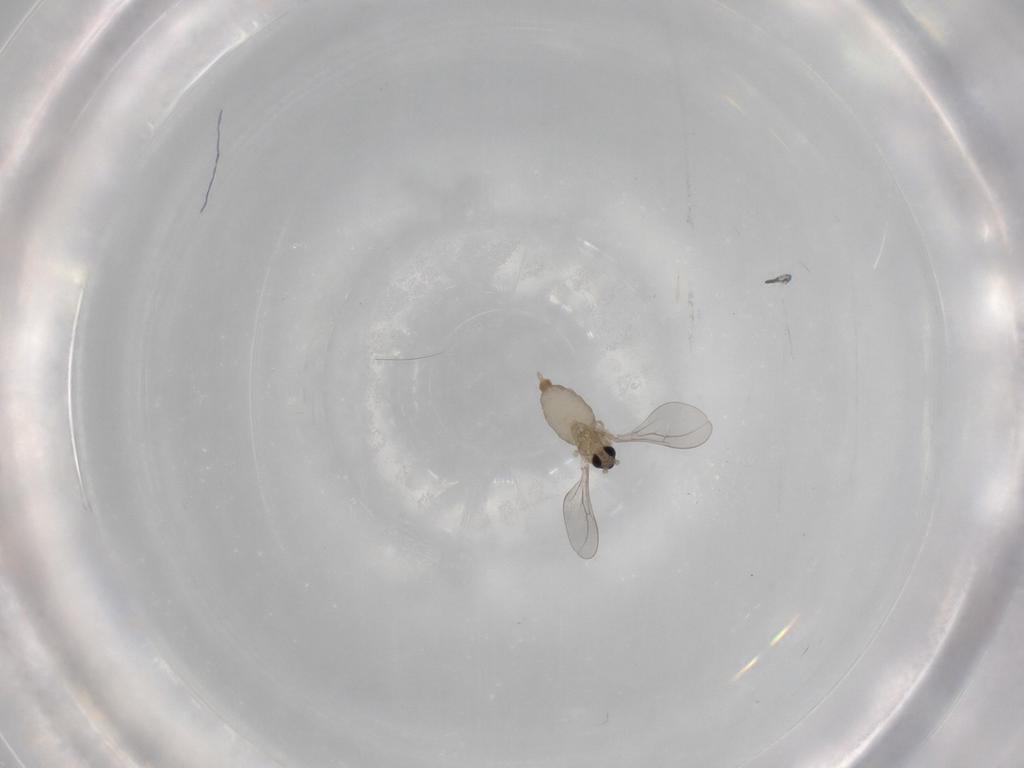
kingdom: Animalia
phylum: Arthropoda
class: Insecta
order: Diptera
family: Cecidomyiidae
